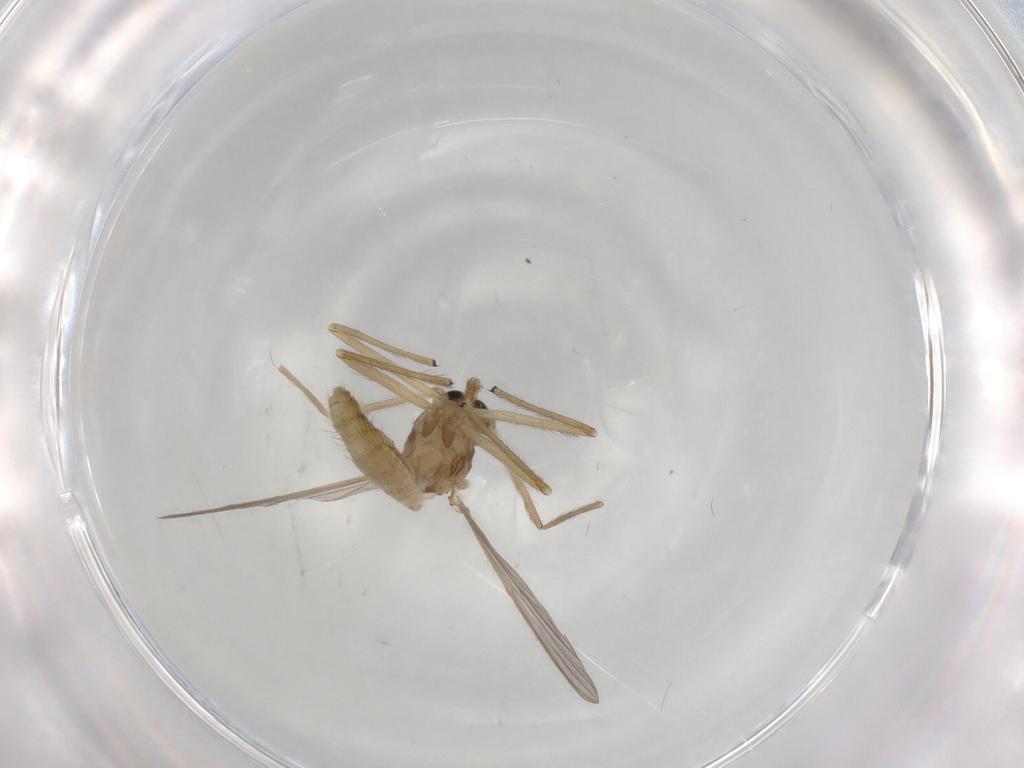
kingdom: Animalia
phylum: Arthropoda
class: Insecta
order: Diptera
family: Chironomidae
